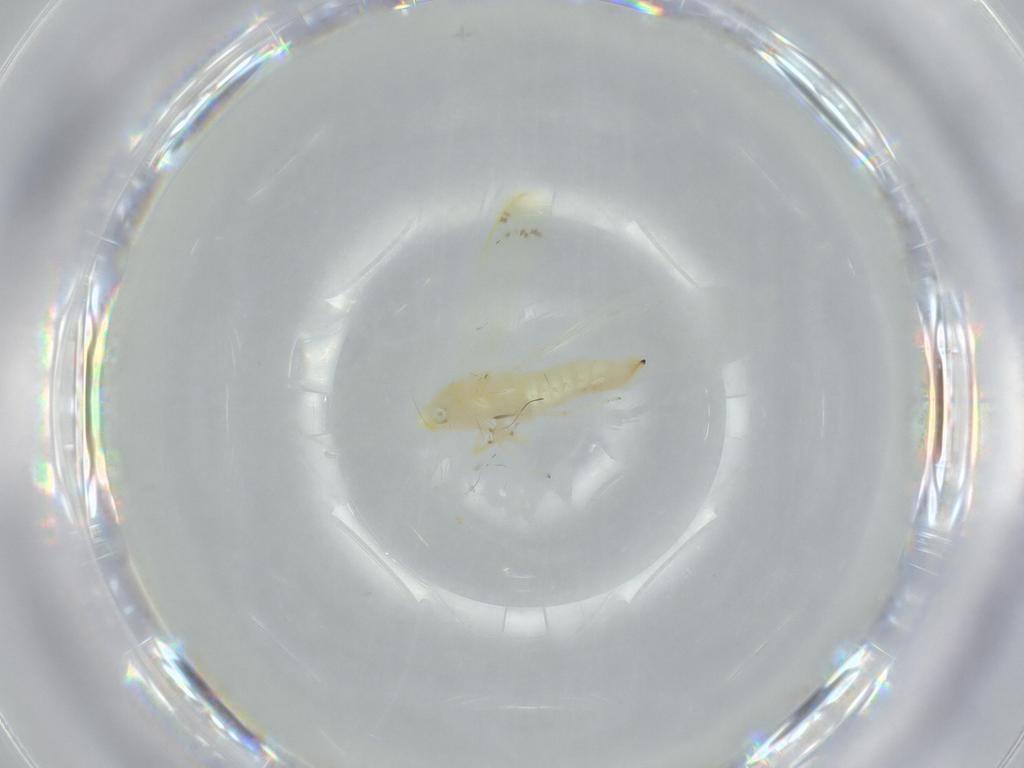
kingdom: Animalia
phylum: Arthropoda
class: Insecta
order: Hemiptera
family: Cicadellidae
